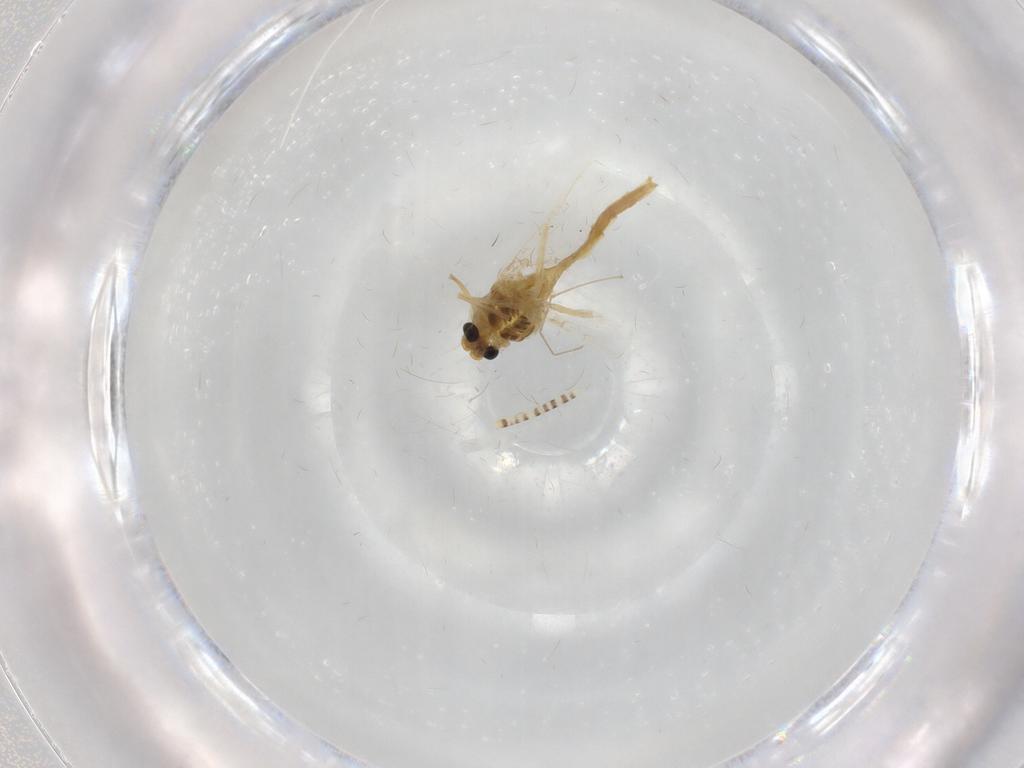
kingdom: Animalia
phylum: Arthropoda
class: Insecta
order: Diptera
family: Chironomidae
